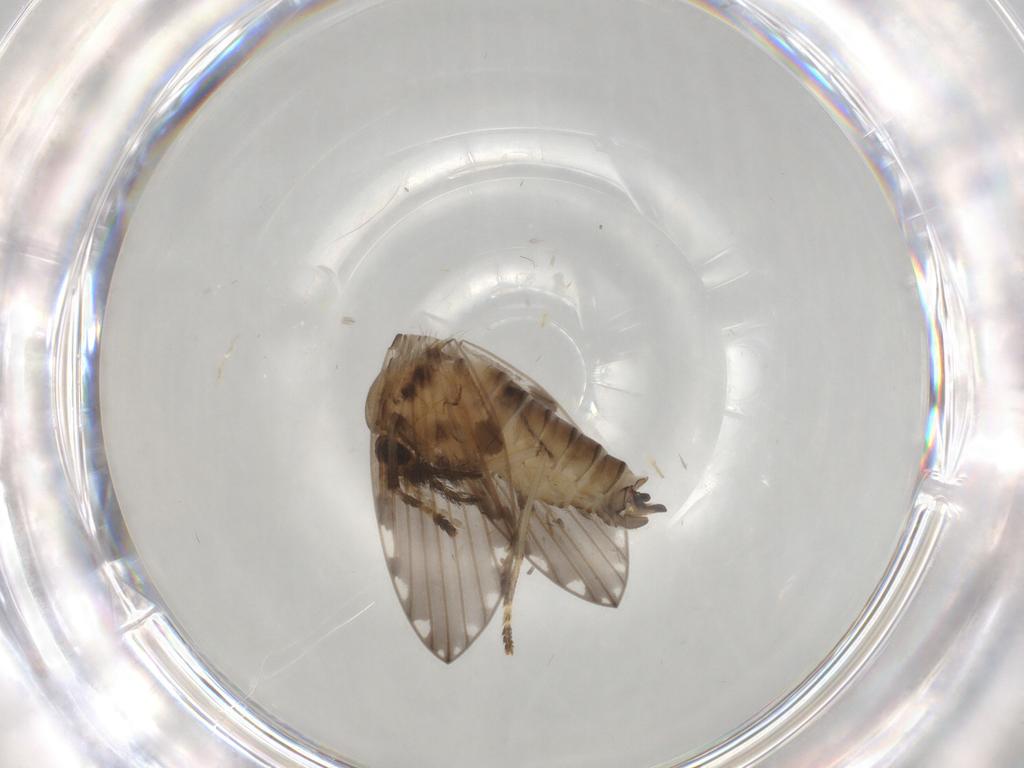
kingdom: Animalia
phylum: Arthropoda
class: Insecta
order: Diptera
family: Psychodidae
